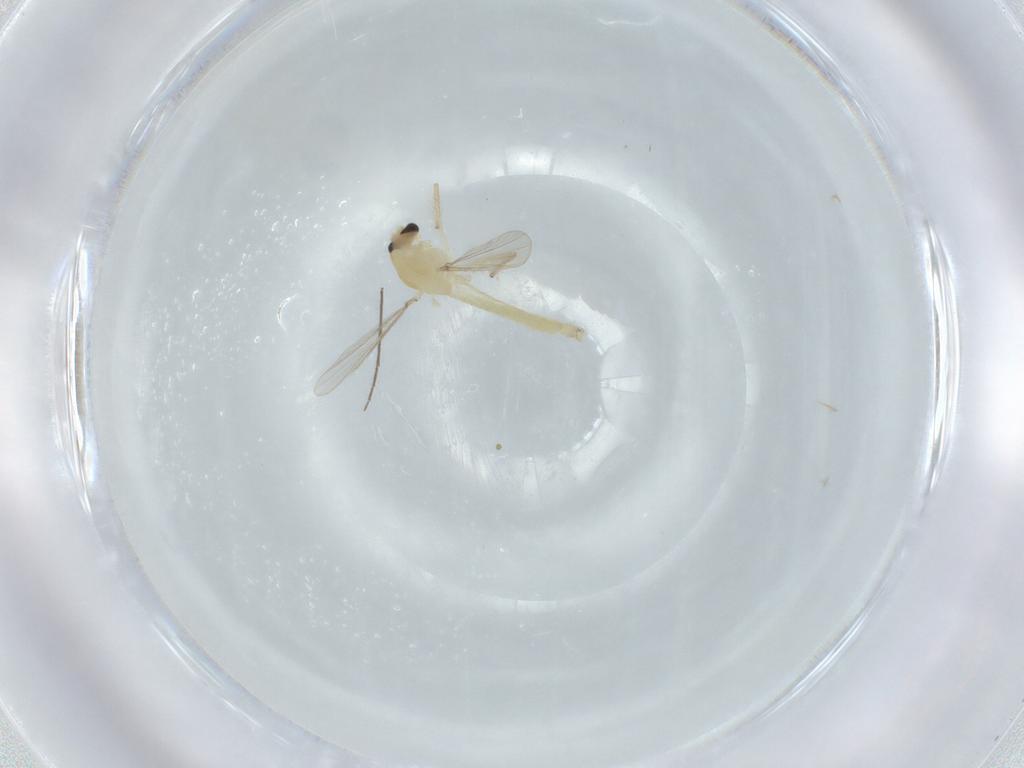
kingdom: Animalia
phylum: Arthropoda
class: Insecta
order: Diptera
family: Chironomidae
